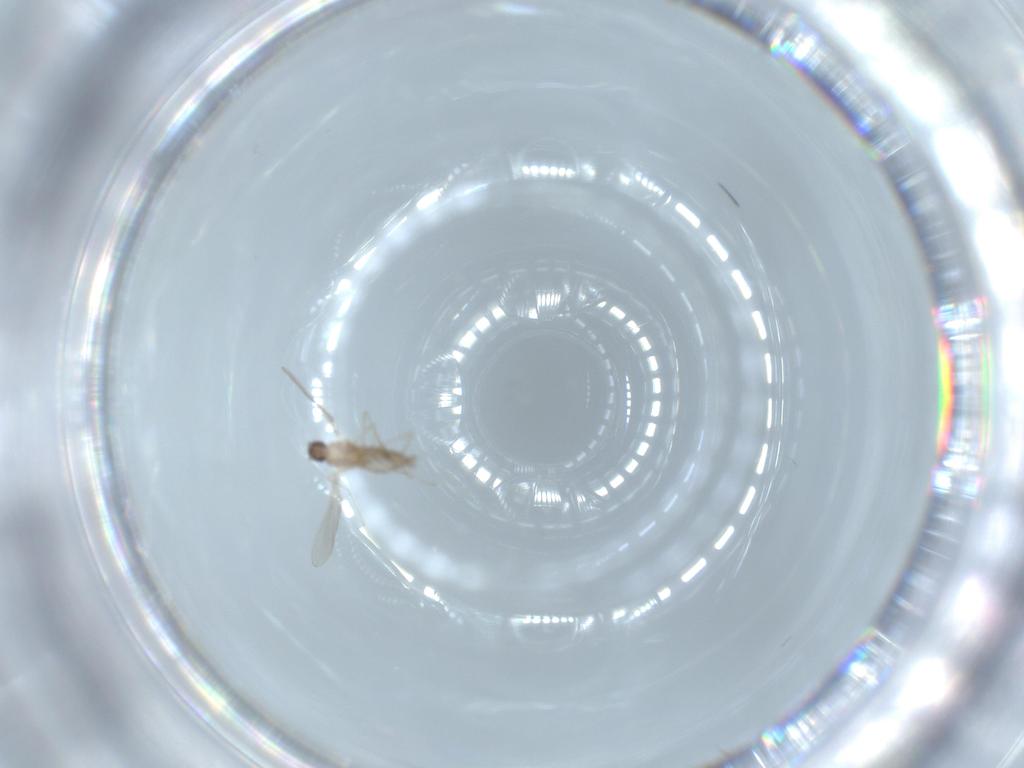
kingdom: Animalia
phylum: Arthropoda
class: Insecta
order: Diptera
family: Cecidomyiidae
